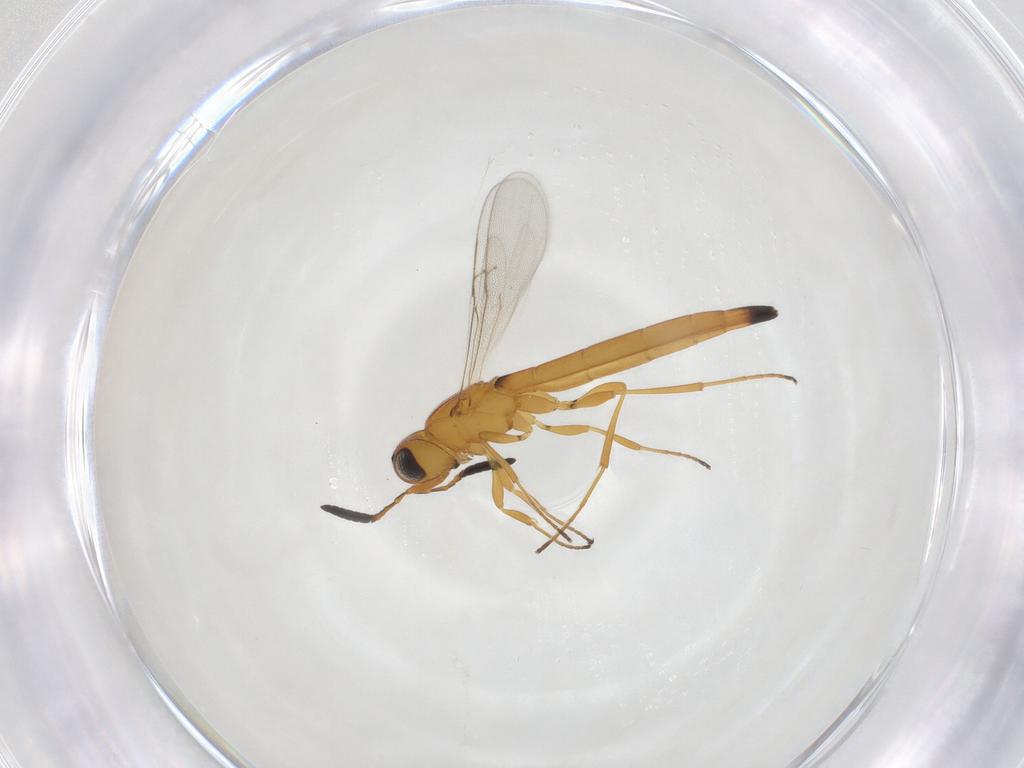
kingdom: Animalia
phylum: Arthropoda
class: Insecta
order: Hymenoptera
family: Scelionidae
